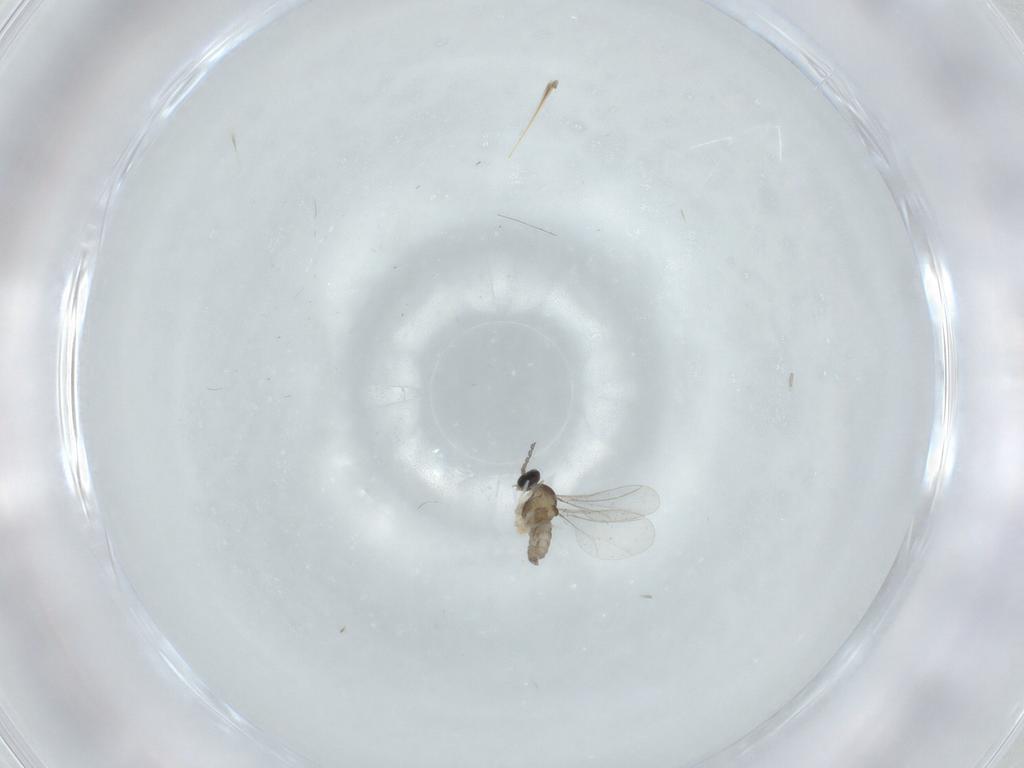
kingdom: Animalia
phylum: Arthropoda
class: Insecta
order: Diptera
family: Cecidomyiidae
